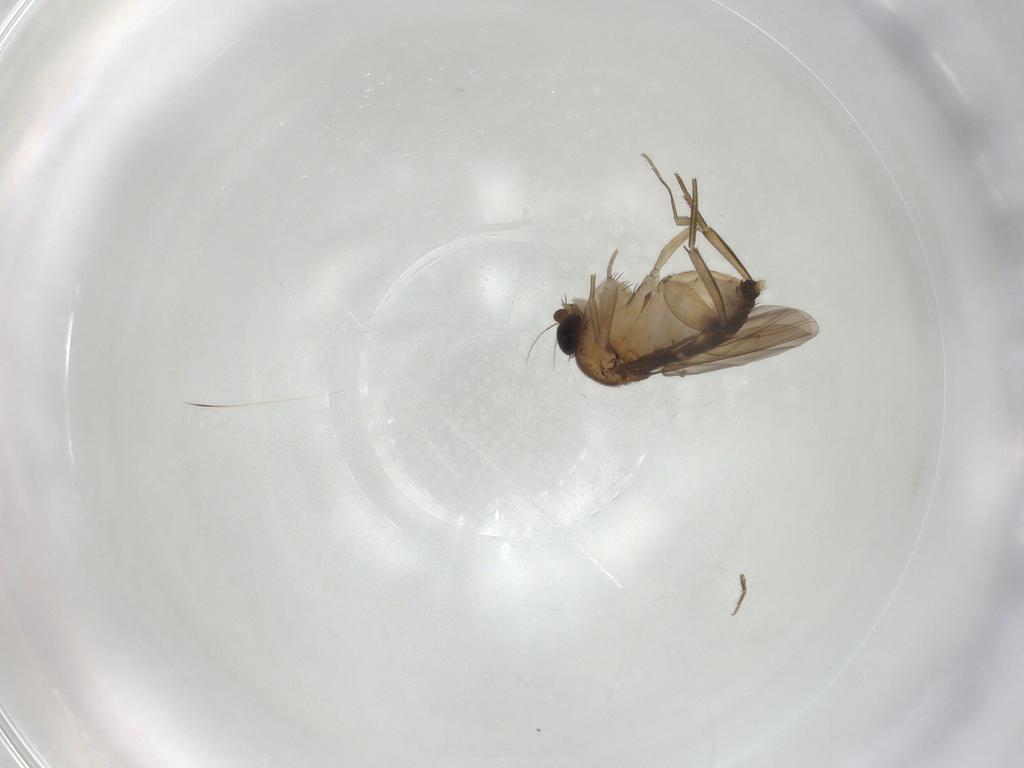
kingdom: Animalia
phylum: Arthropoda
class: Insecta
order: Diptera
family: Phoridae
